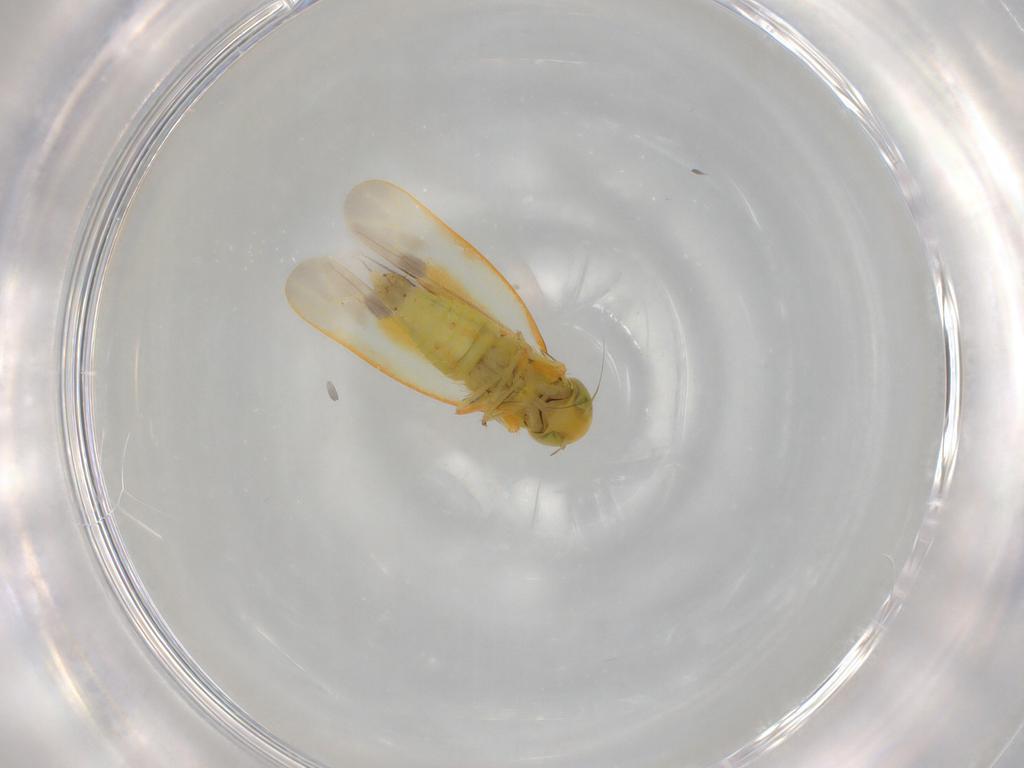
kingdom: Animalia
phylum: Arthropoda
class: Insecta
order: Hemiptera
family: Cicadellidae
